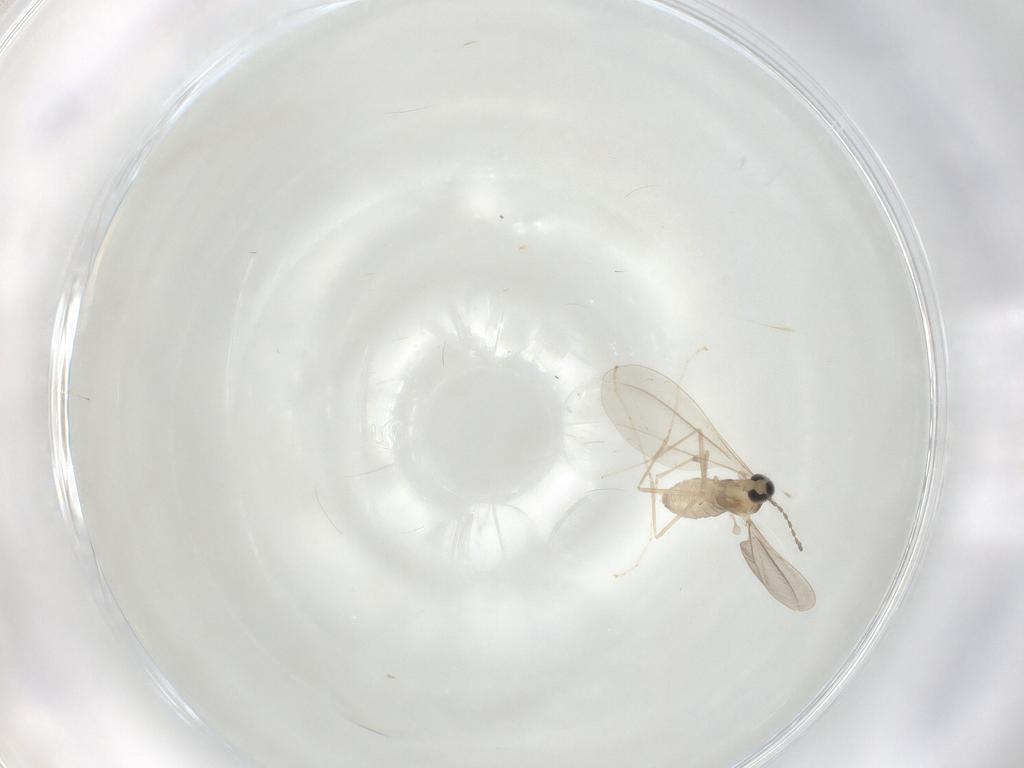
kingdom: Animalia
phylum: Arthropoda
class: Insecta
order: Diptera
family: Cecidomyiidae
